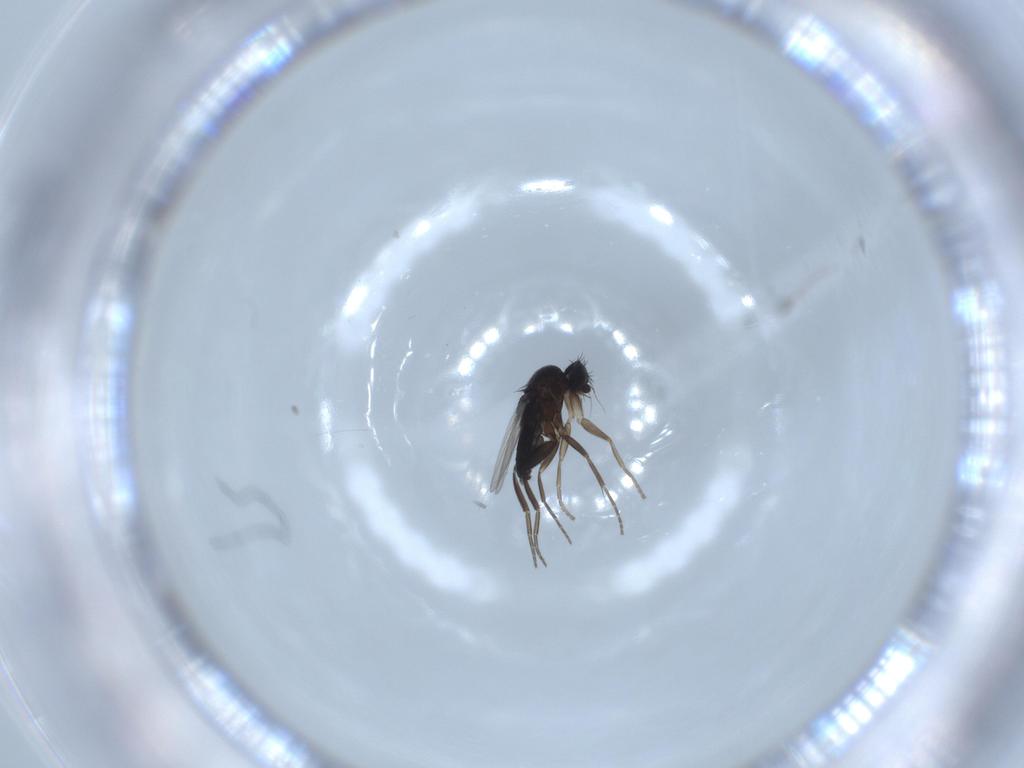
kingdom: Animalia
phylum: Arthropoda
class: Insecta
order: Diptera
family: Phoridae
